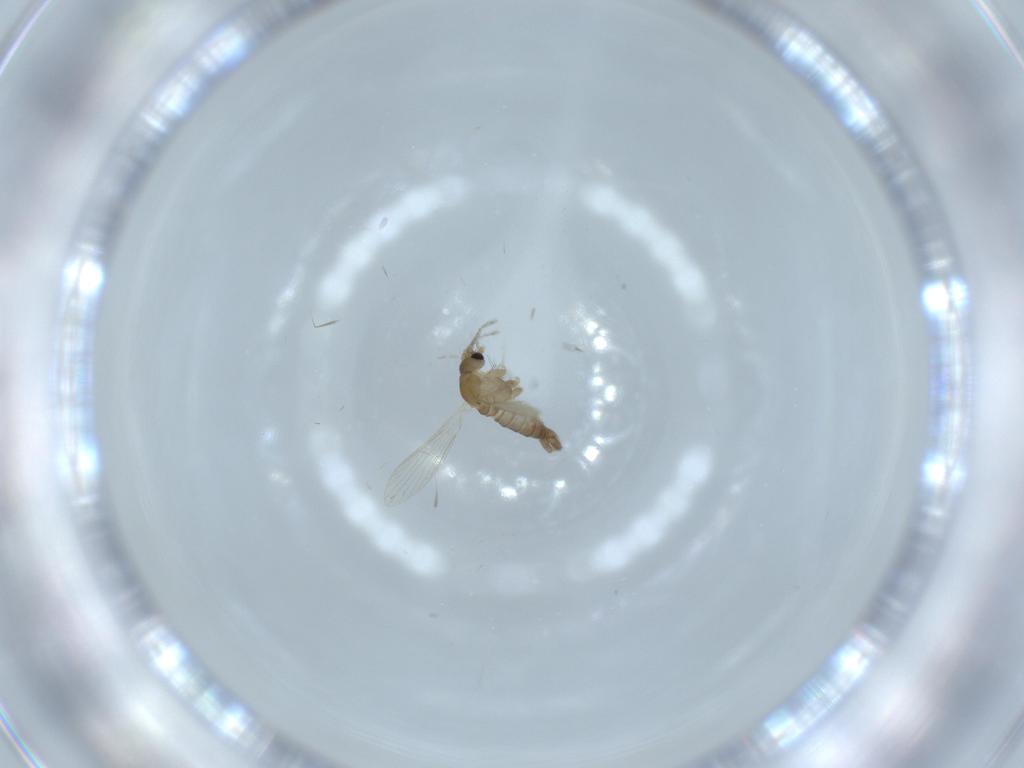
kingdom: Animalia
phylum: Arthropoda
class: Insecta
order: Diptera
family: Psychodidae
